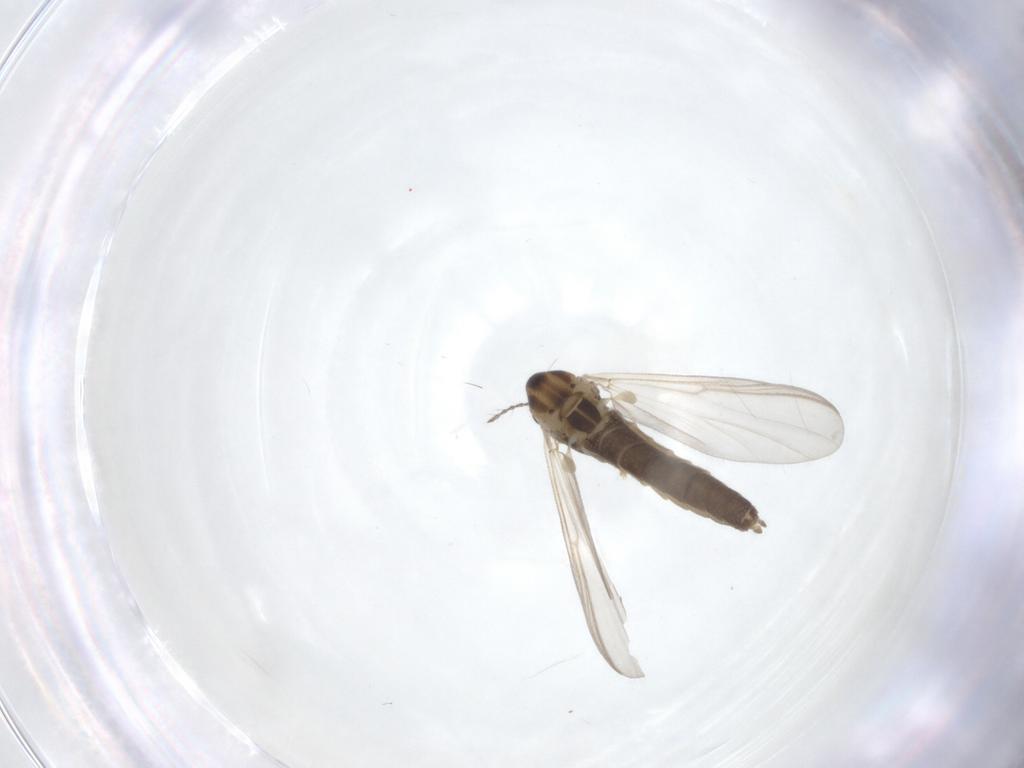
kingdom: Animalia
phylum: Arthropoda
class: Insecta
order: Diptera
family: Chironomidae
